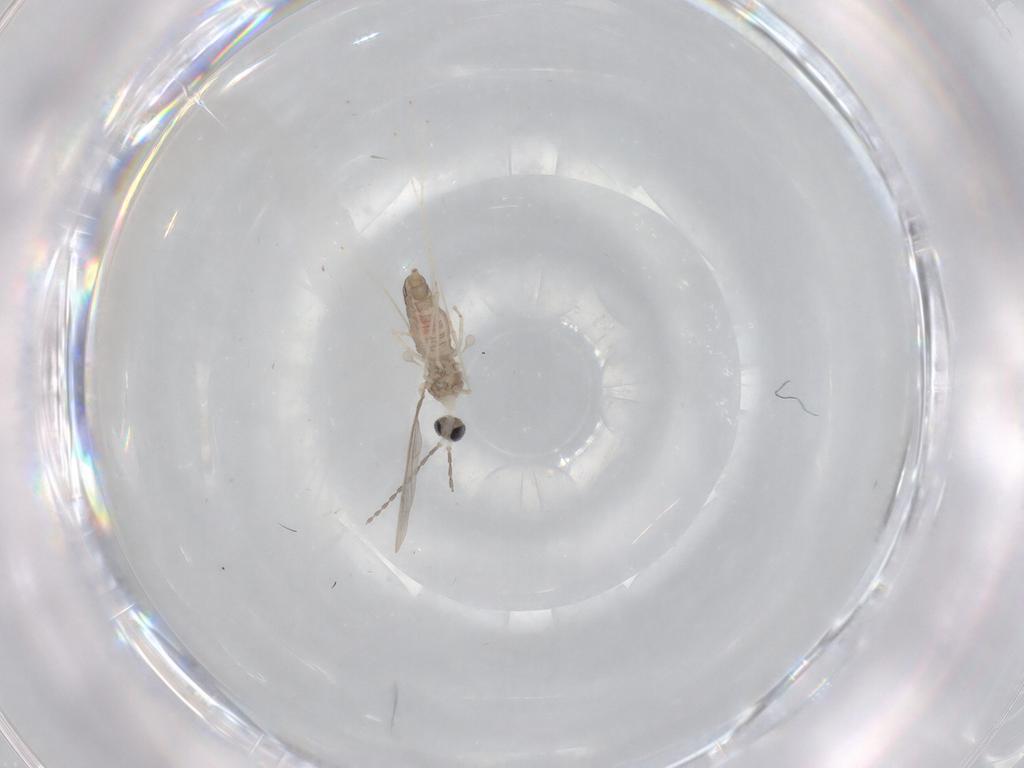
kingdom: Animalia
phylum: Arthropoda
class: Insecta
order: Diptera
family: Cecidomyiidae
